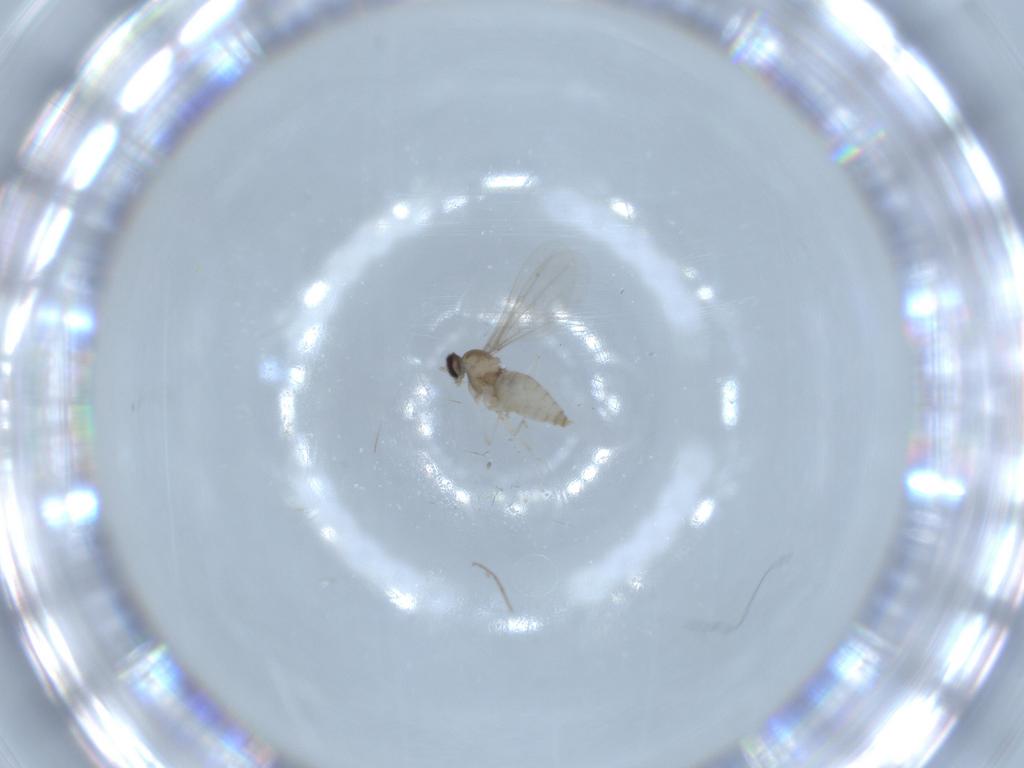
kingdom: Animalia
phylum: Arthropoda
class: Insecta
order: Diptera
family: Cecidomyiidae
